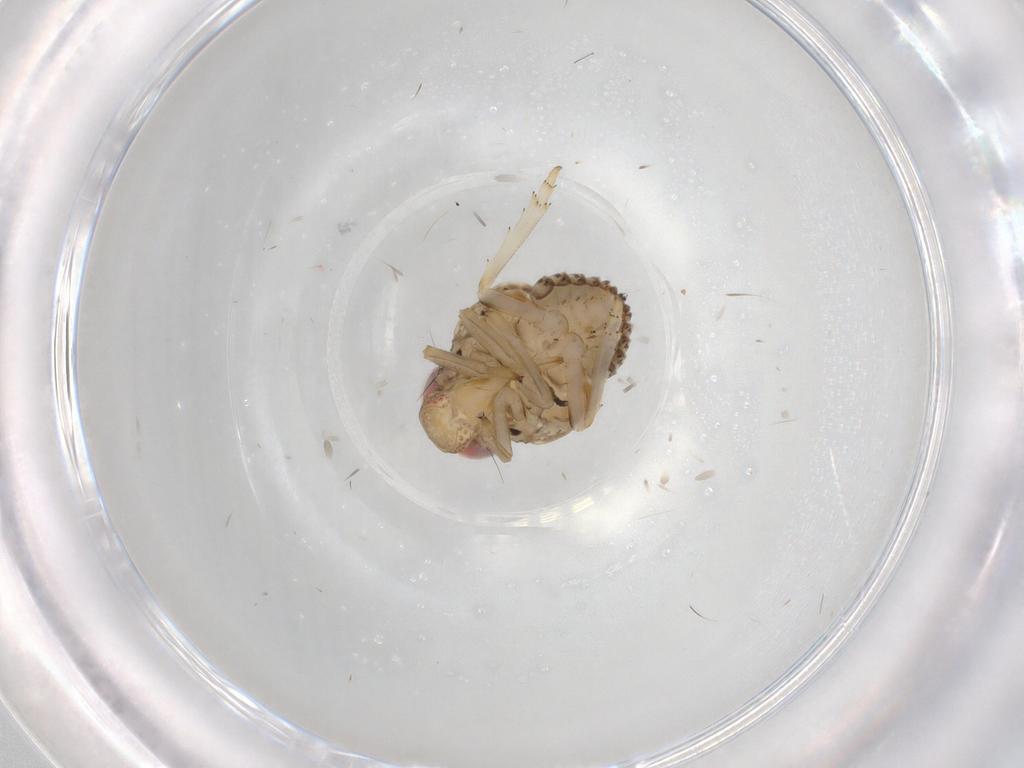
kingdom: Animalia
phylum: Arthropoda
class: Insecta
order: Hemiptera
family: Issidae
